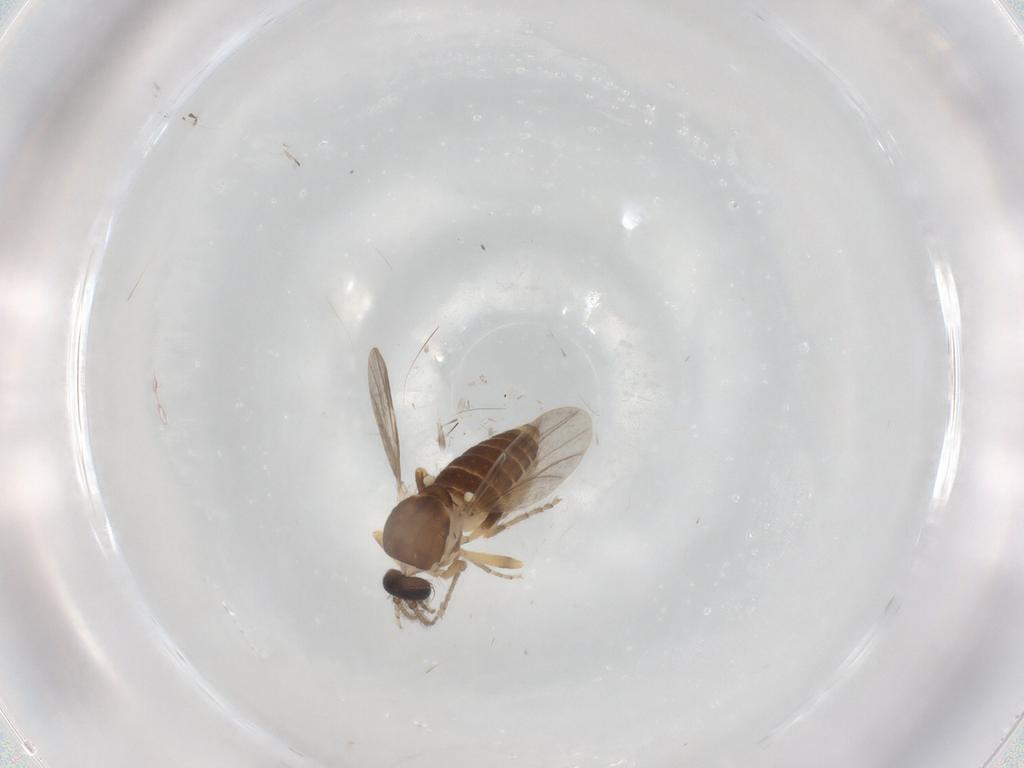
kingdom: Animalia
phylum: Arthropoda
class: Insecta
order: Diptera
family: Ceratopogonidae
